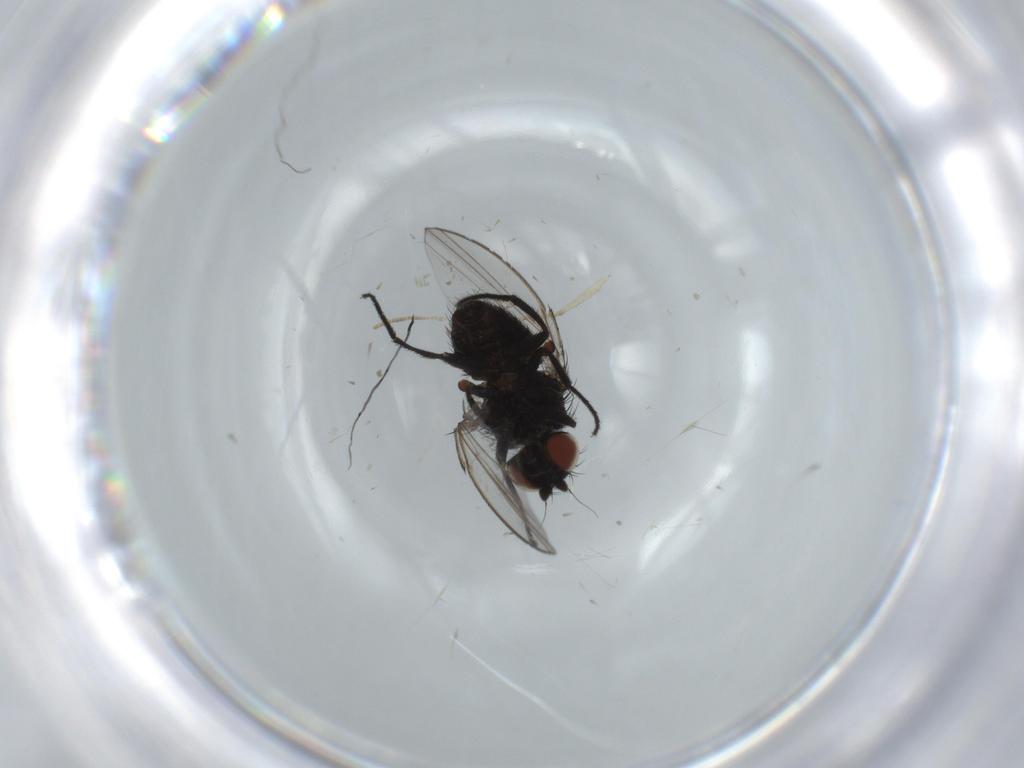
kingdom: Animalia
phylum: Arthropoda
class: Insecta
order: Diptera
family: Psychodidae
